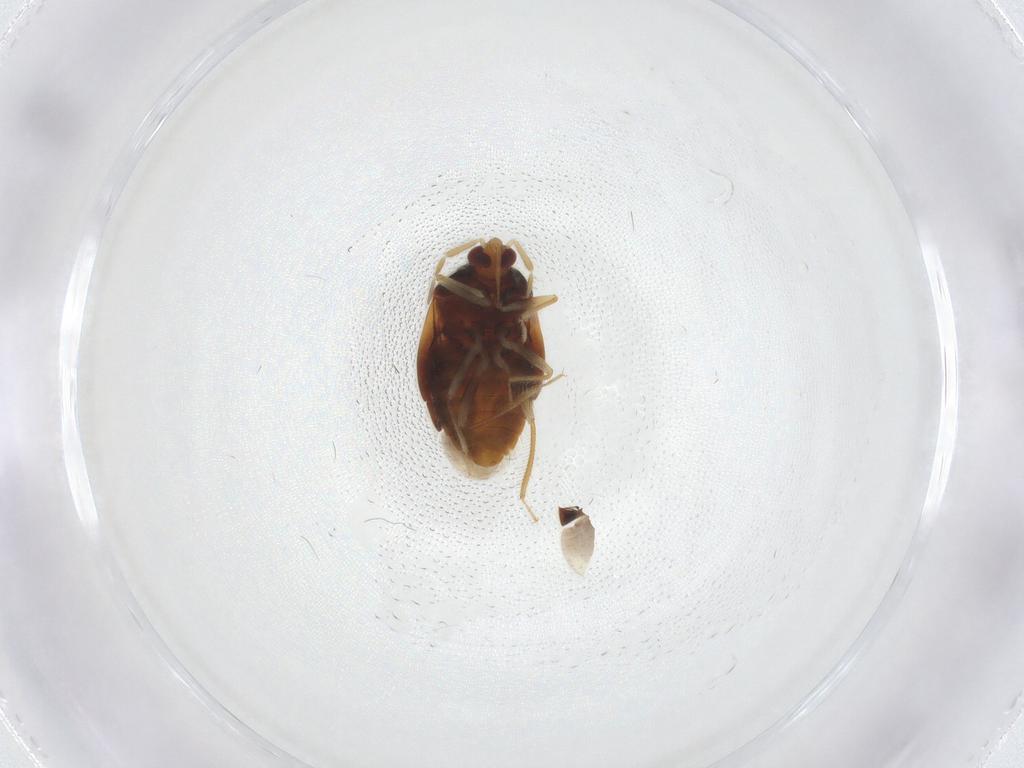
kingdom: Animalia
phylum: Arthropoda
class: Insecta
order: Hemiptera
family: Anthocoridae
